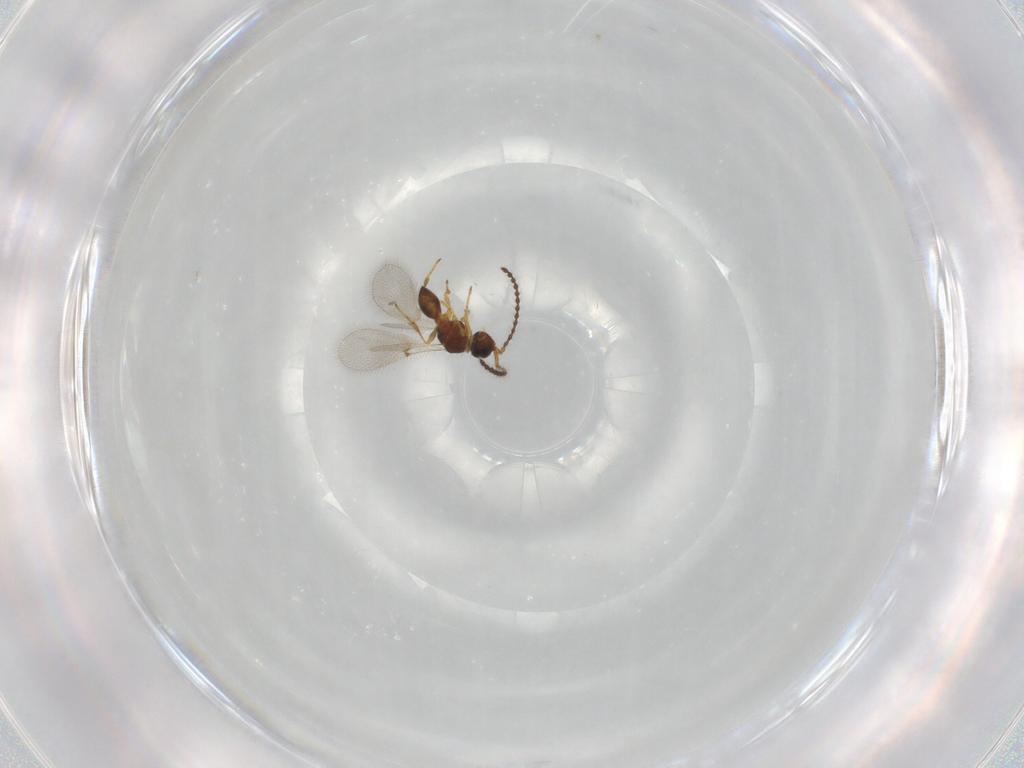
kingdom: Animalia
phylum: Arthropoda
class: Insecta
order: Hymenoptera
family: Diapriidae
